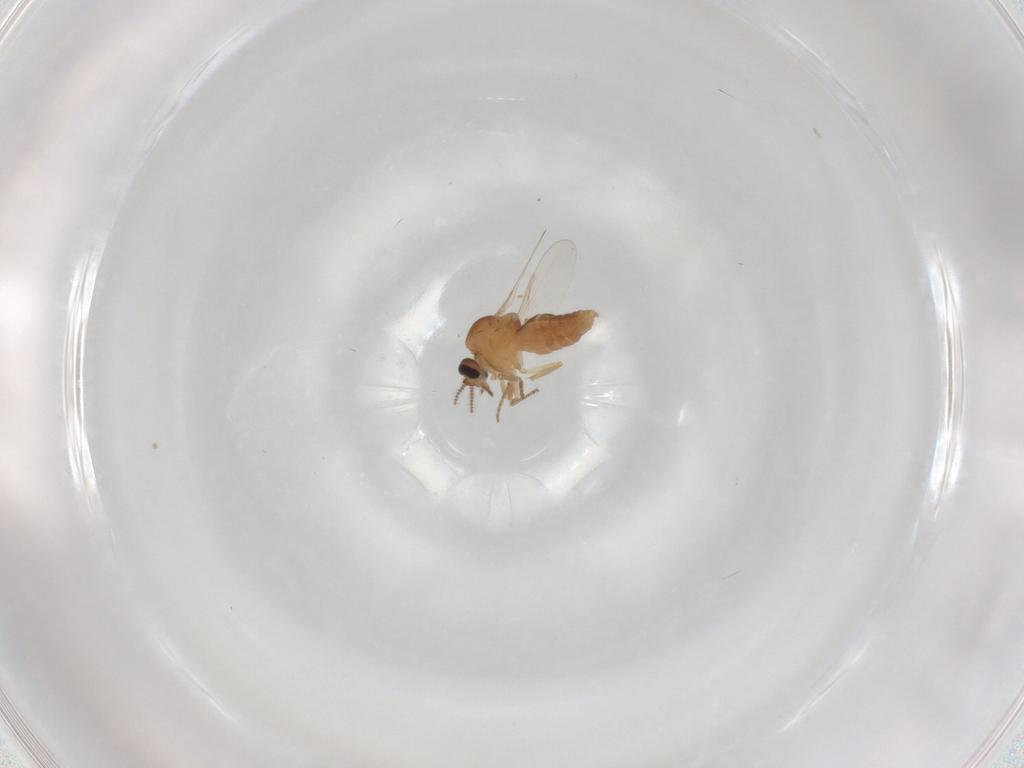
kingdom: Animalia
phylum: Arthropoda
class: Insecta
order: Diptera
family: Ceratopogonidae
